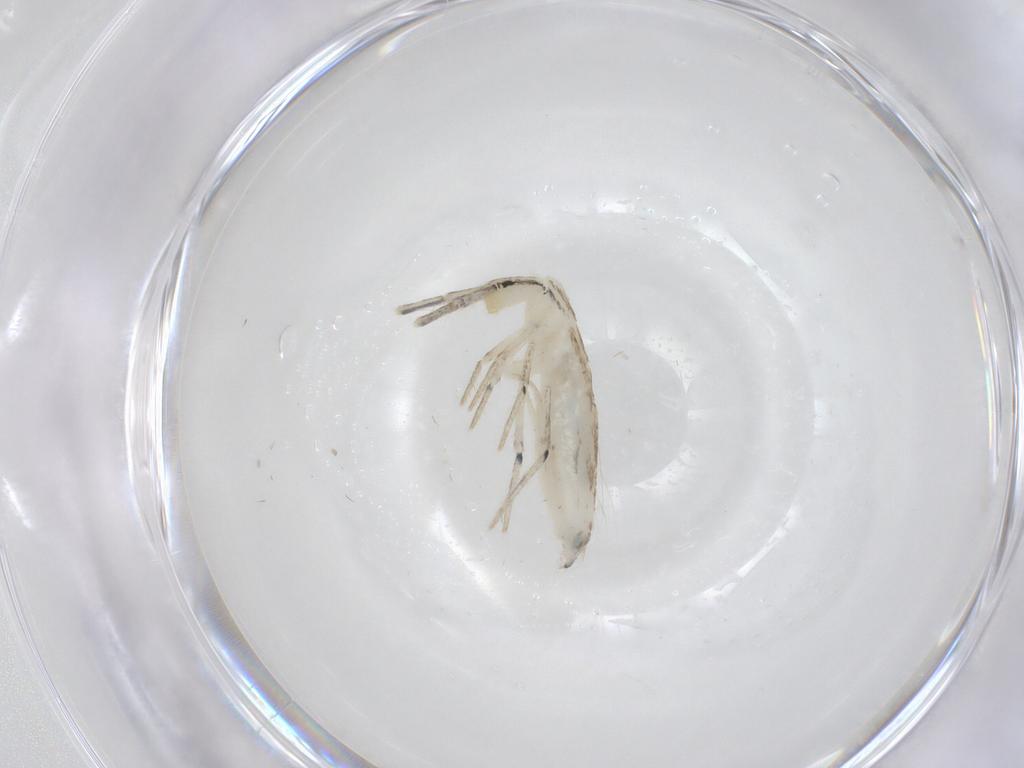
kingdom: Animalia
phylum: Arthropoda
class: Collembola
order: Entomobryomorpha
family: Entomobryidae
